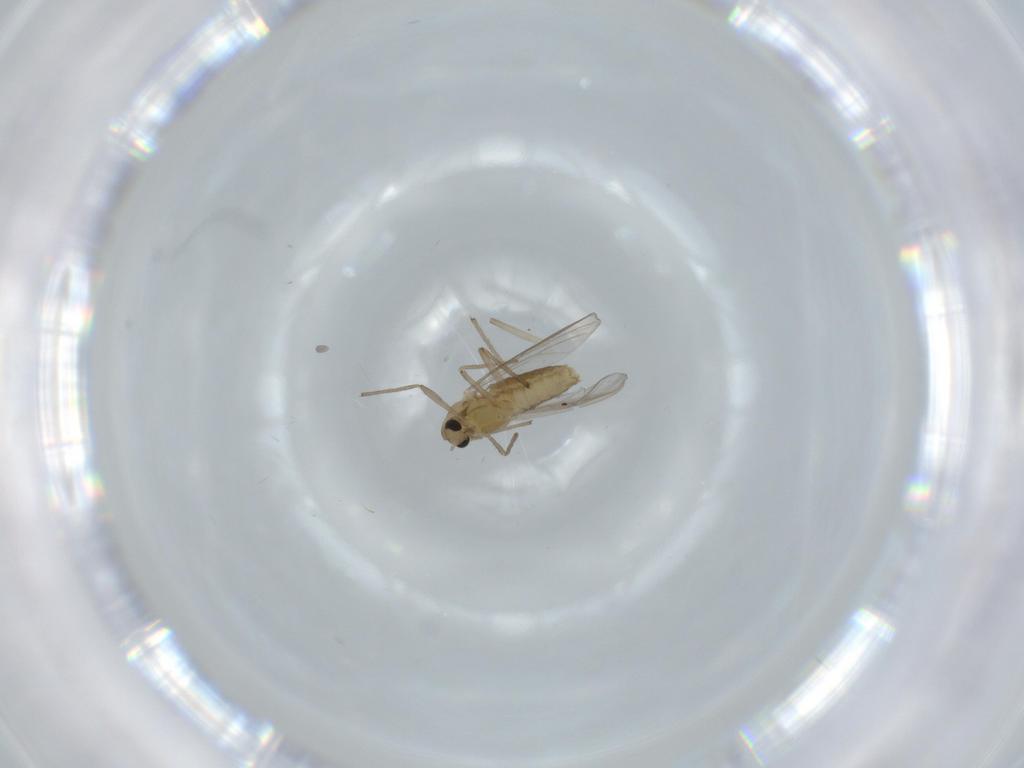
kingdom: Animalia
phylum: Arthropoda
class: Insecta
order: Diptera
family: Chironomidae
